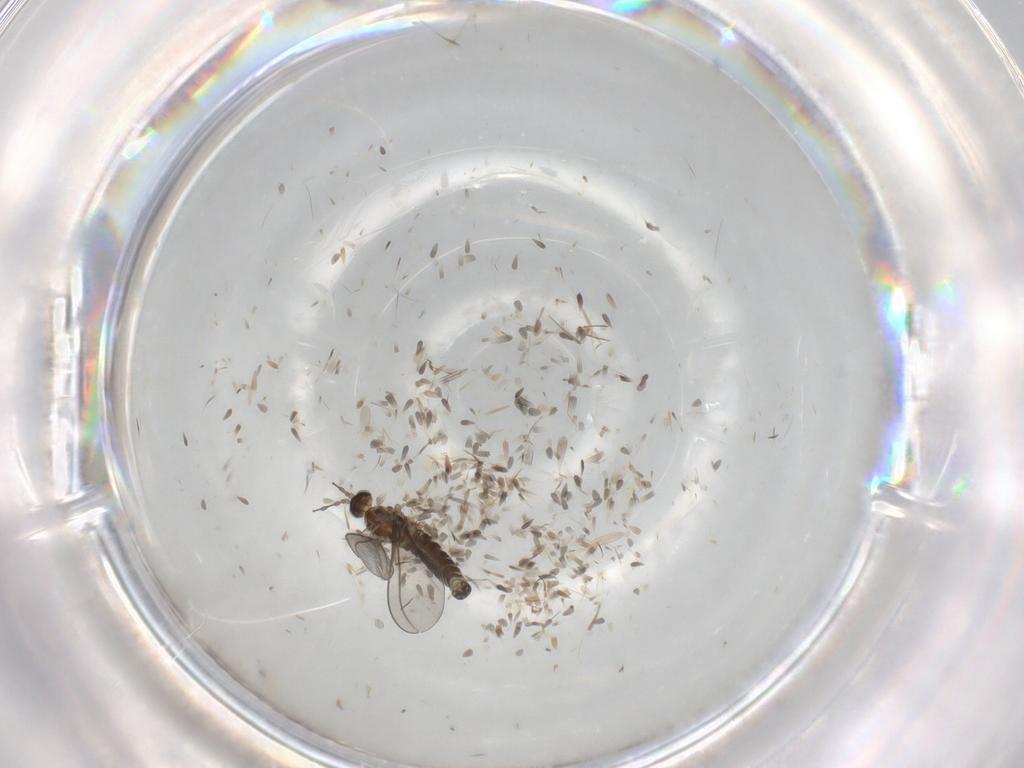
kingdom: Animalia
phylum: Arthropoda
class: Insecta
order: Diptera
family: Cecidomyiidae
